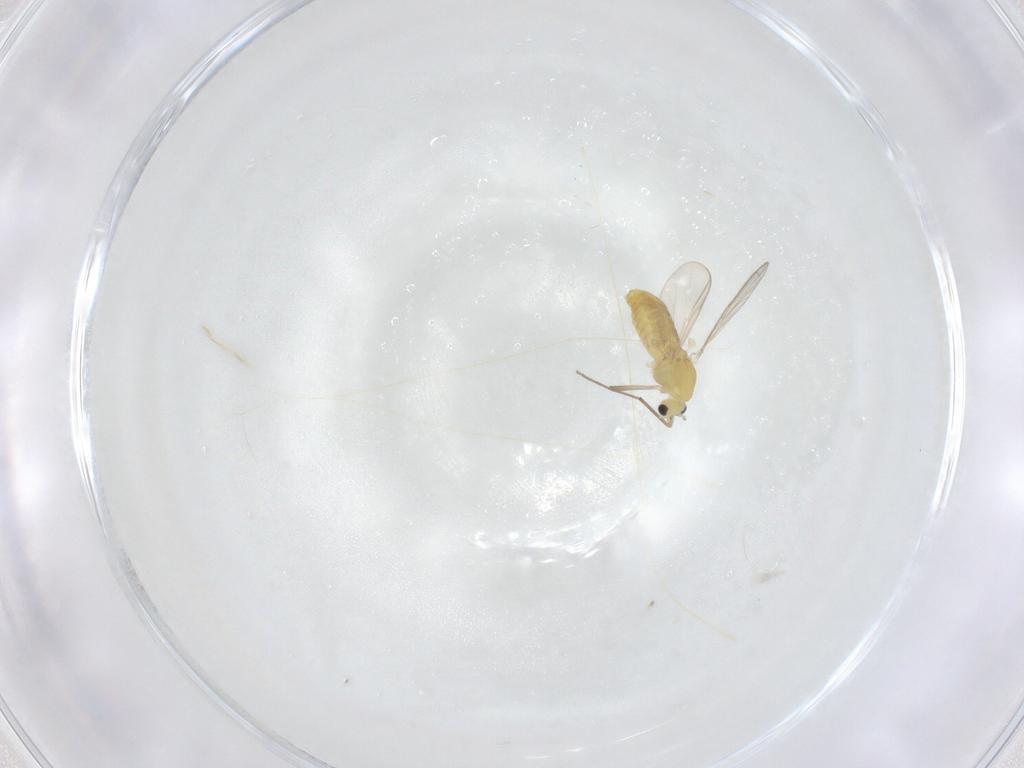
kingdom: Animalia
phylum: Arthropoda
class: Insecta
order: Diptera
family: Chironomidae
